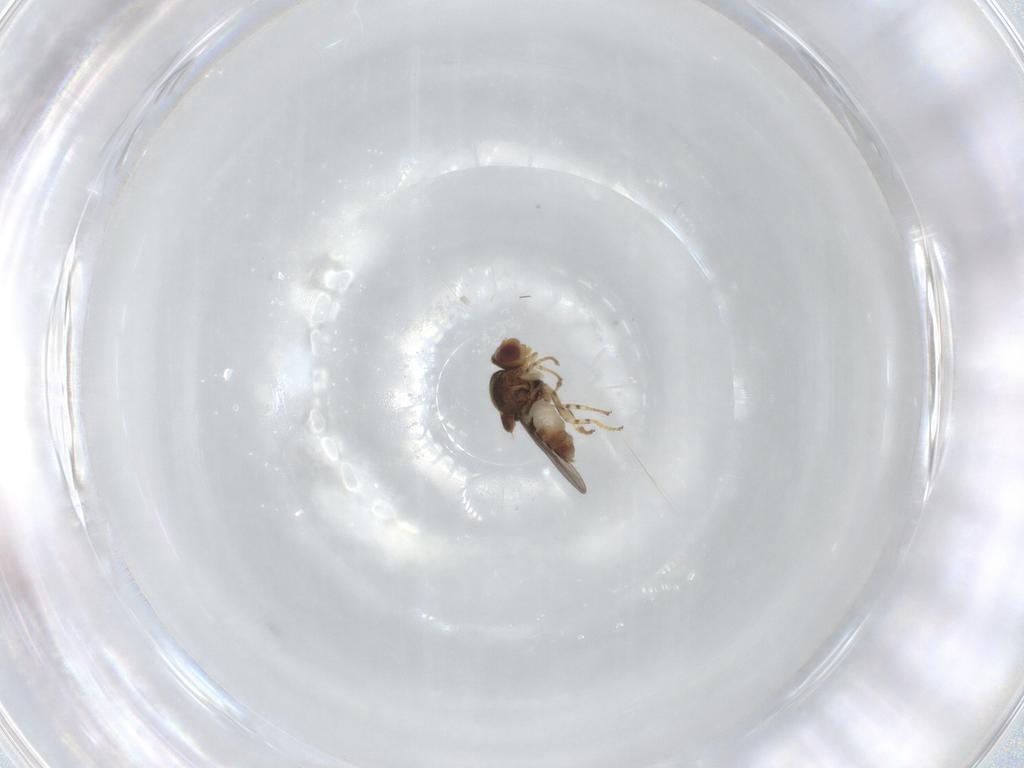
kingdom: Animalia
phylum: Arthropoda
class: Insecta
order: Diptera
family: Chloropidae
